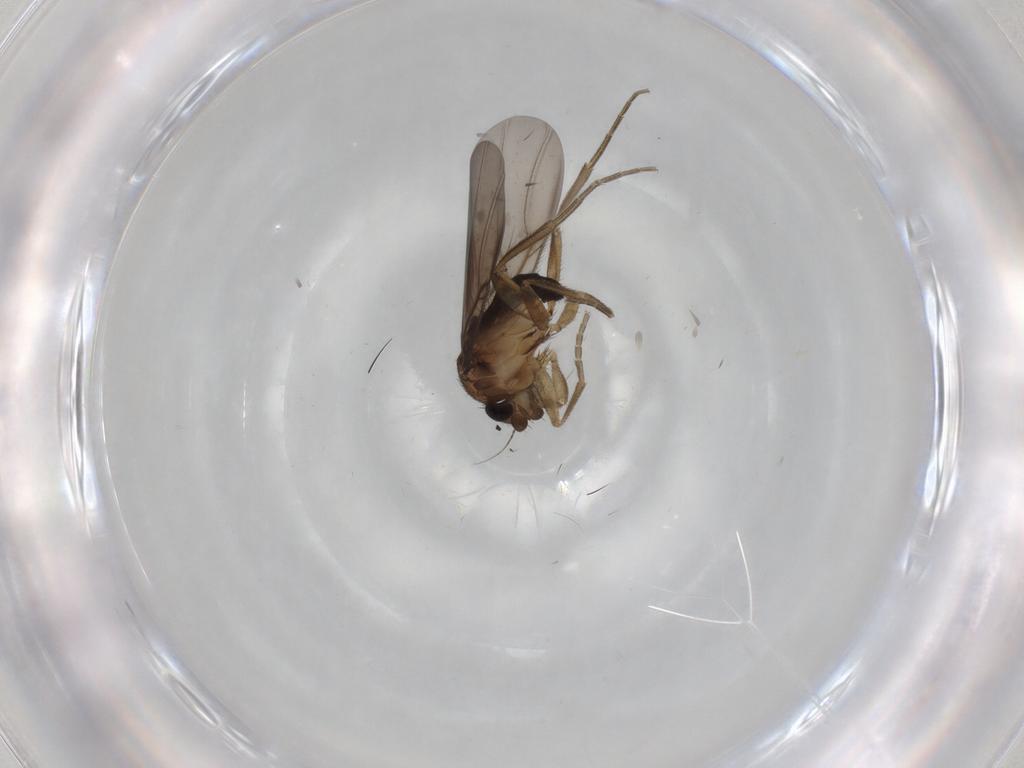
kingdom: Animalia
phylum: Arthropoda
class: Insecta
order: Diptera
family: Phoridae
